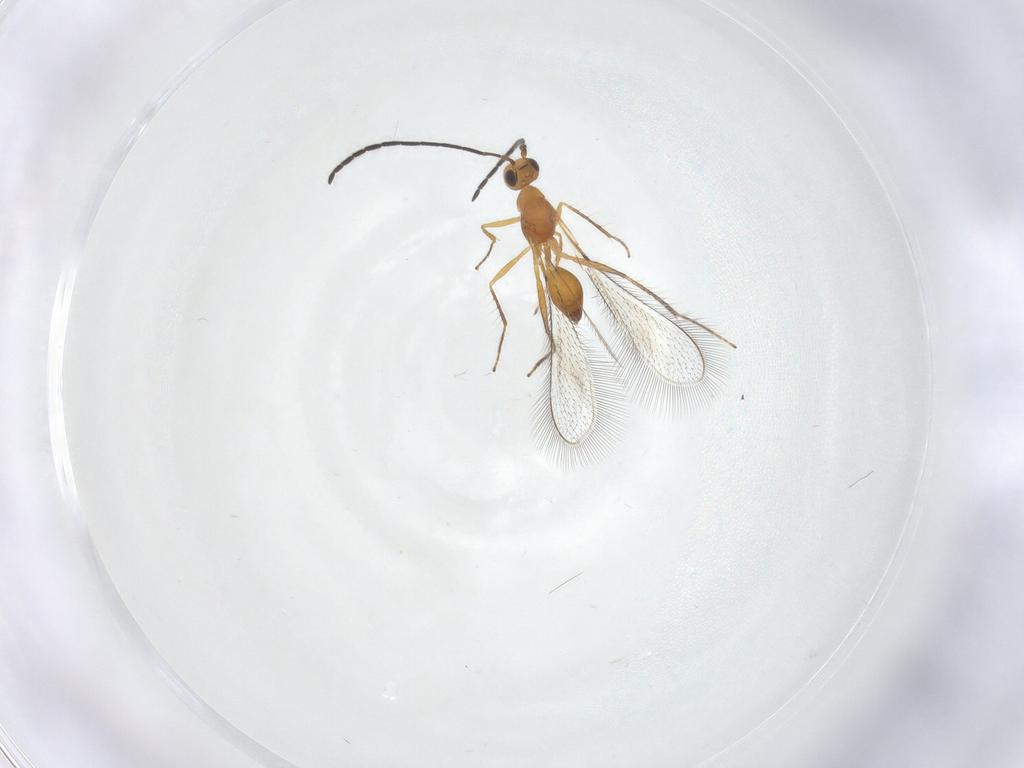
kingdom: Animalia
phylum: Arthropoda
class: Insecta
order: Hymenoptera
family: Mymaridae
